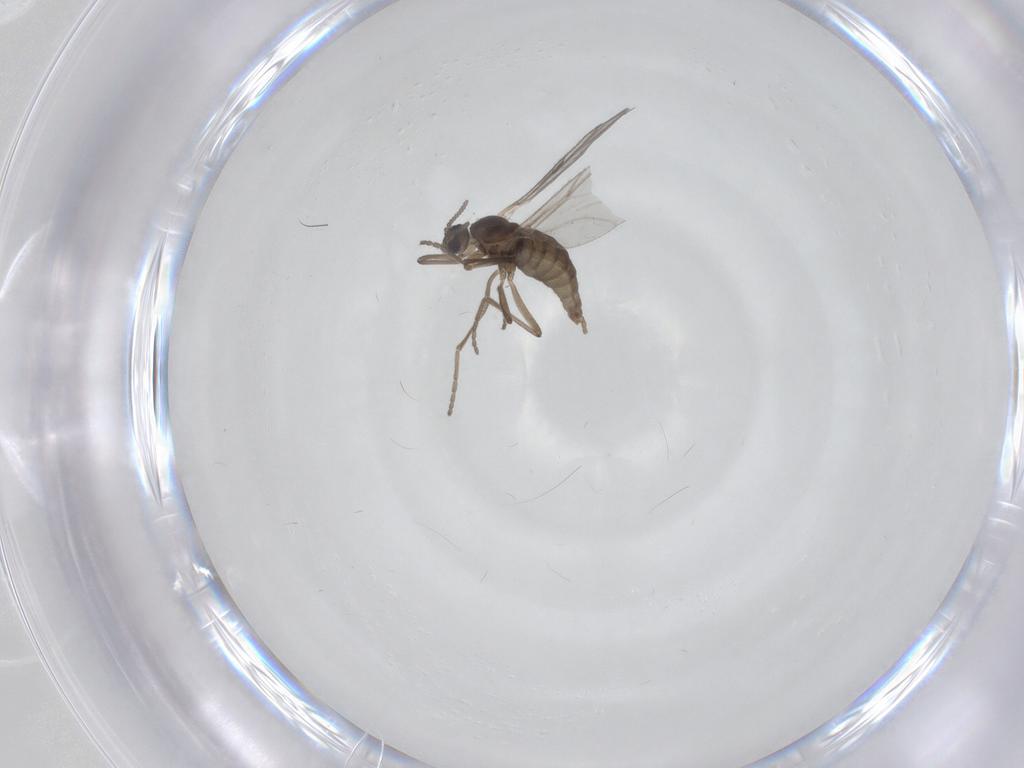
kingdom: Animalia
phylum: Arthropoda
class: Insecta
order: Diptera
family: Cecidomyiidae
